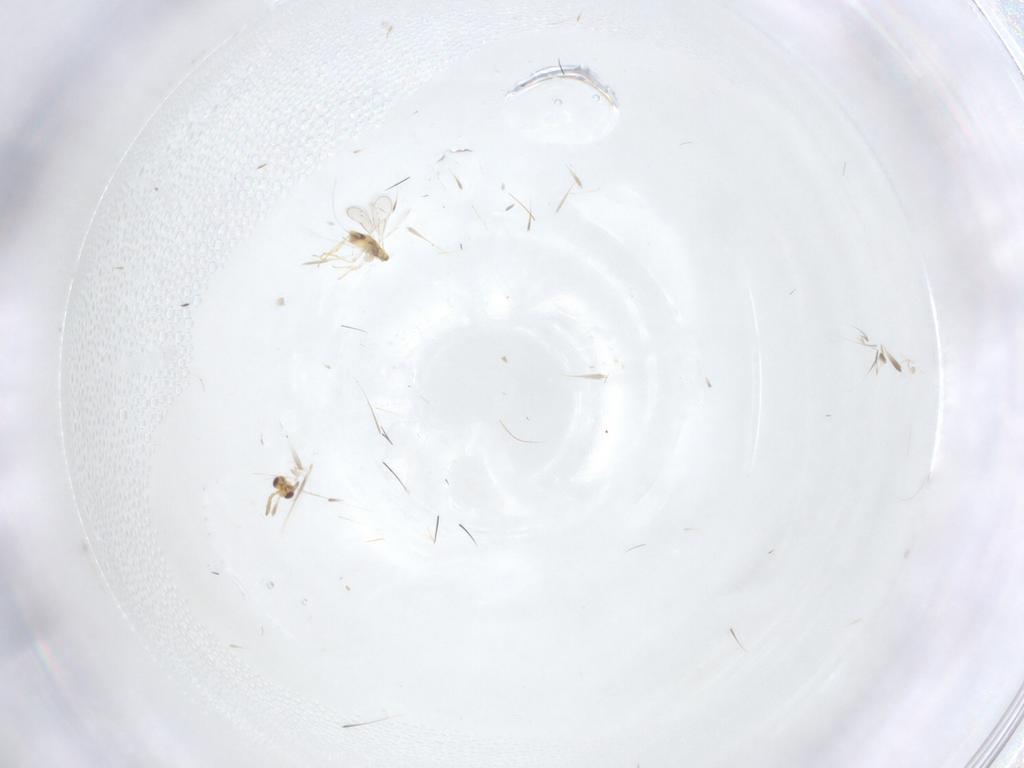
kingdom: Animalia
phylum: Arthropoda
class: Insecta
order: Hymenoptera
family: Aphelinidae
